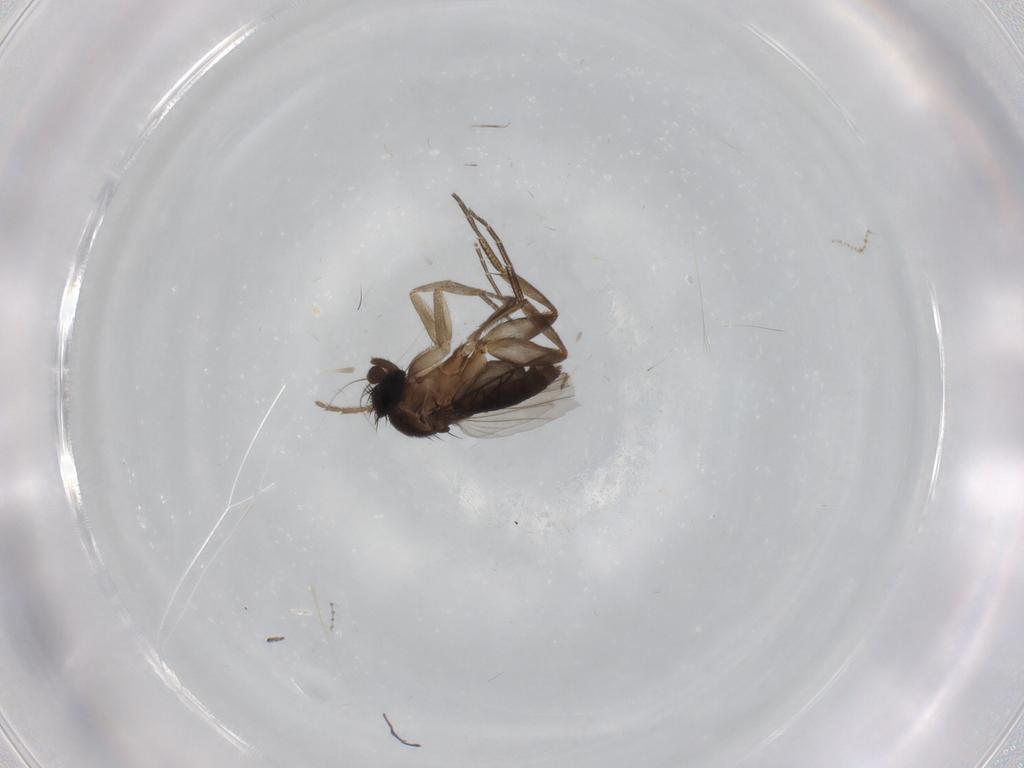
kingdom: Animalia
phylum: Arthropoda
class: Insecta
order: Diptera
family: Phoridae
